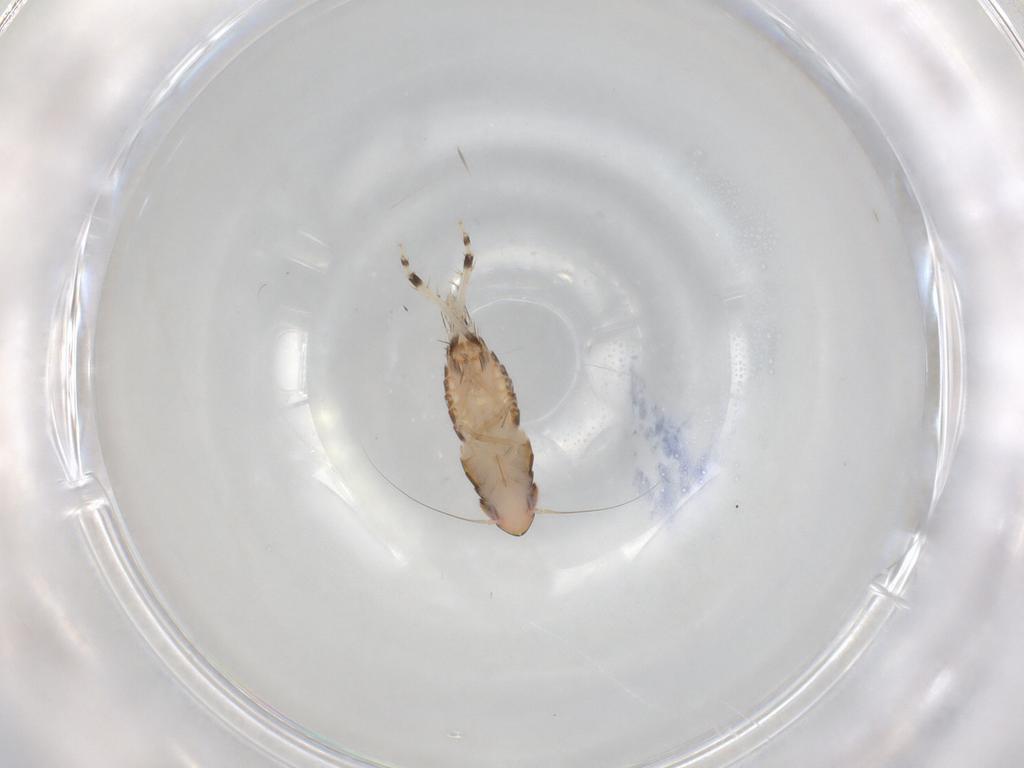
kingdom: Animalia
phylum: Arthropoda
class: Insecta
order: Hemiptera
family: Cicadellidae
